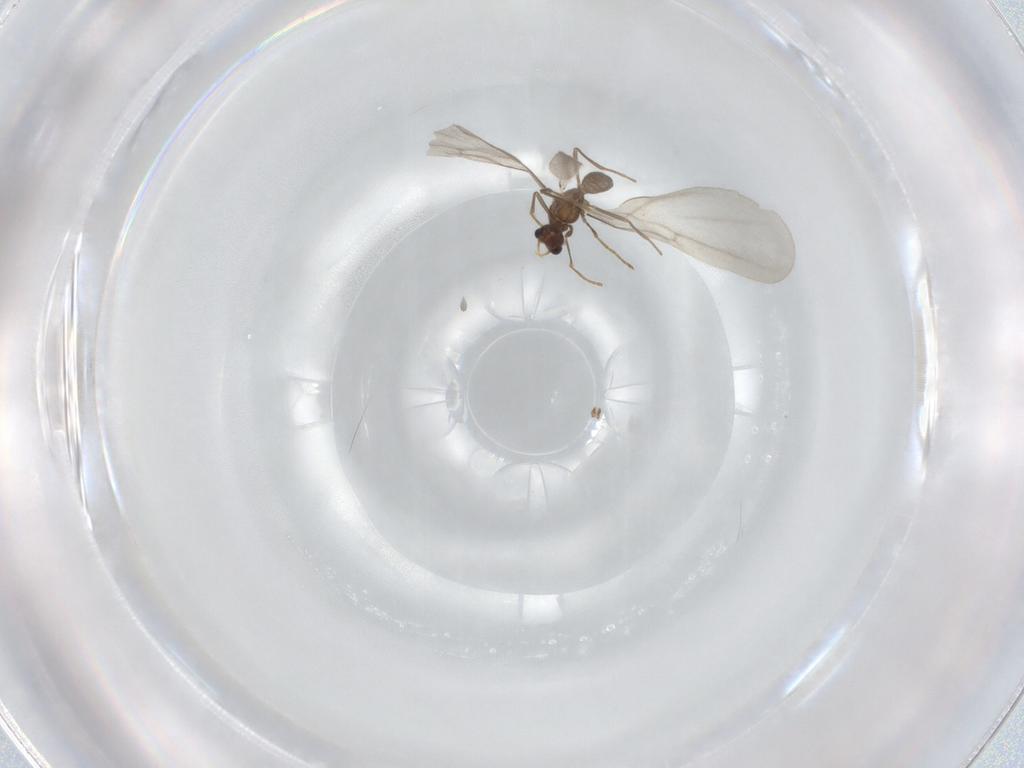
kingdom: Animalia
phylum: Arthropoda
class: Insecta
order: Hymenoptera
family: Formicidae
